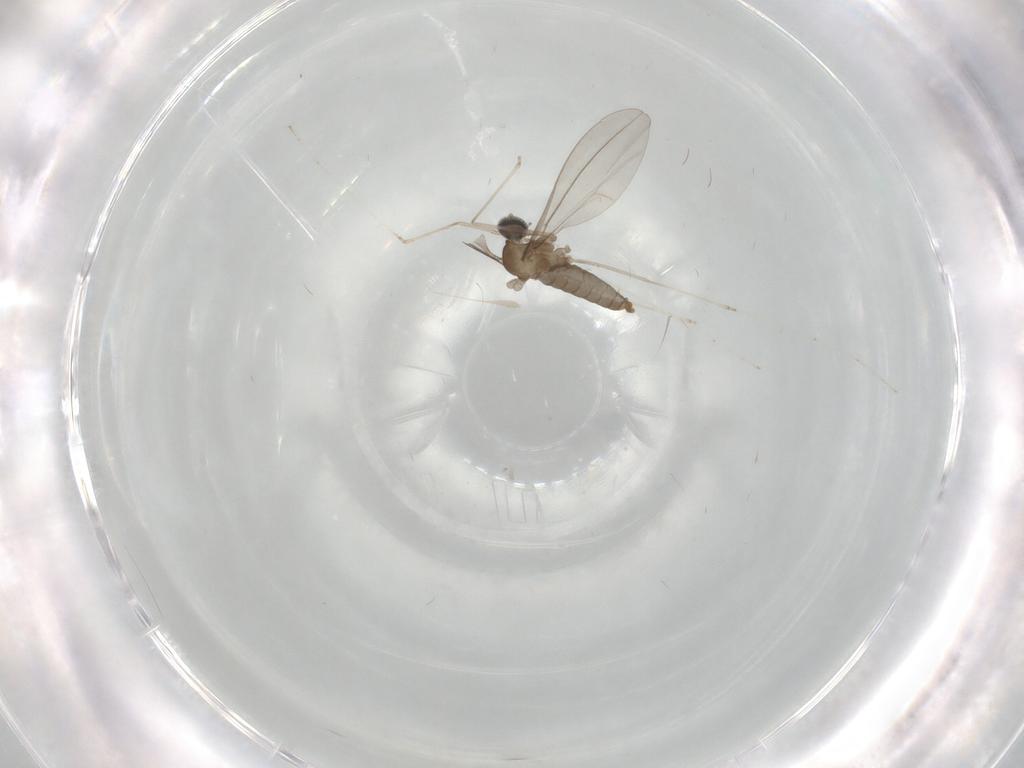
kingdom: Animalia
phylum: Arthropoda
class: Insecta
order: Diptera
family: Cecidomyiidae
